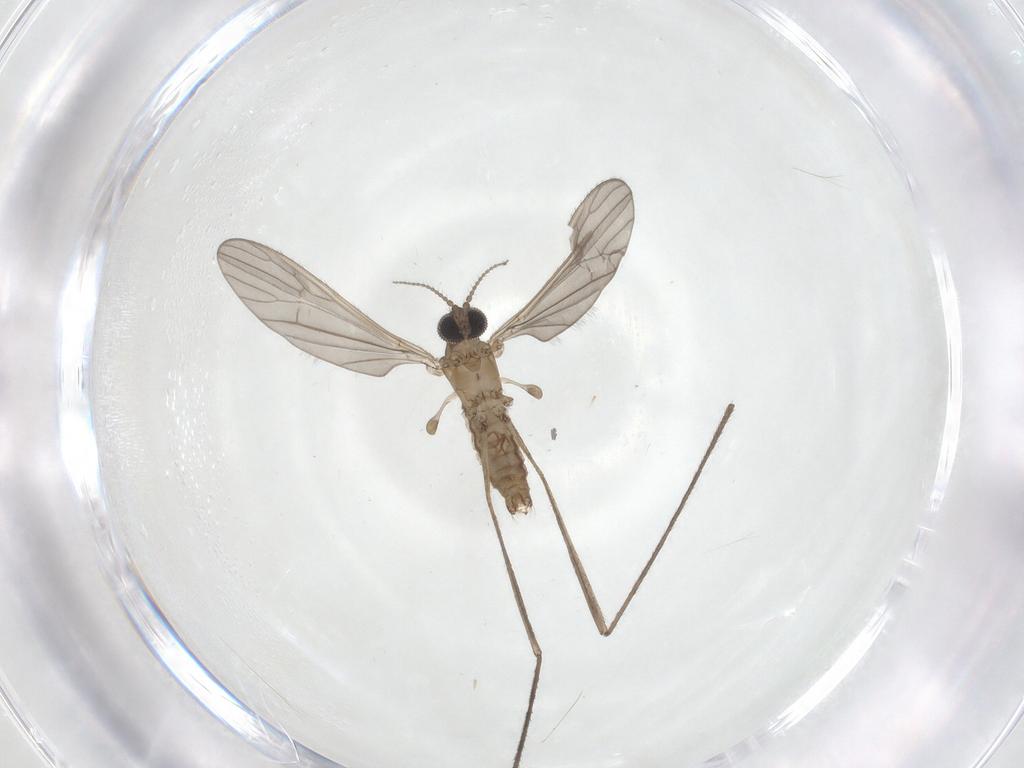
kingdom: Animalia
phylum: Arthropoda
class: Insecta
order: Diptera
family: Limoniidae
